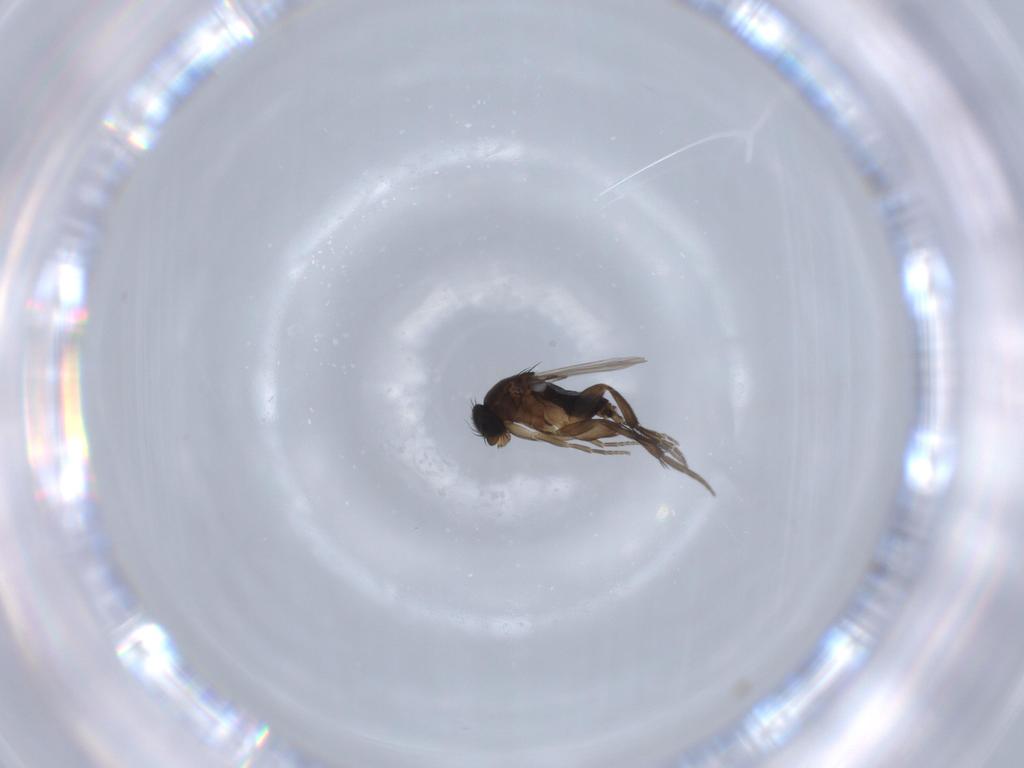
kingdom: Animalia
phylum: Arthropoda
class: Insecta
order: Diptera
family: Phoridae
